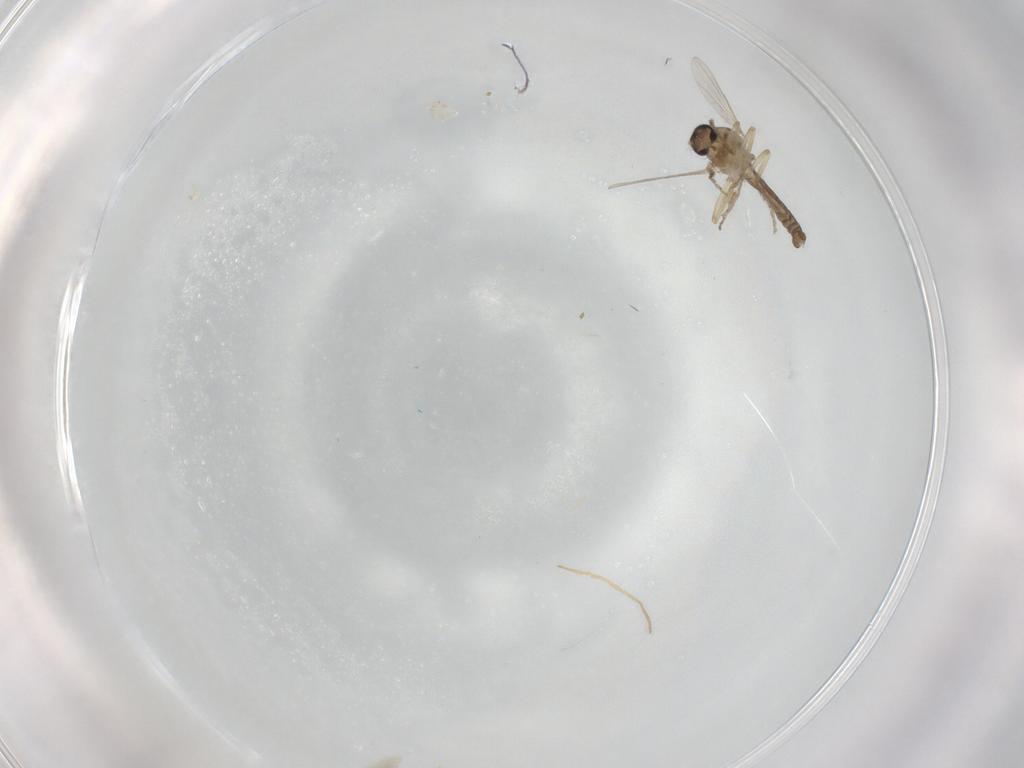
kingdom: Animalia
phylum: Arthropoda
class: Insecta
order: Diptera
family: Ceratopogonidae
